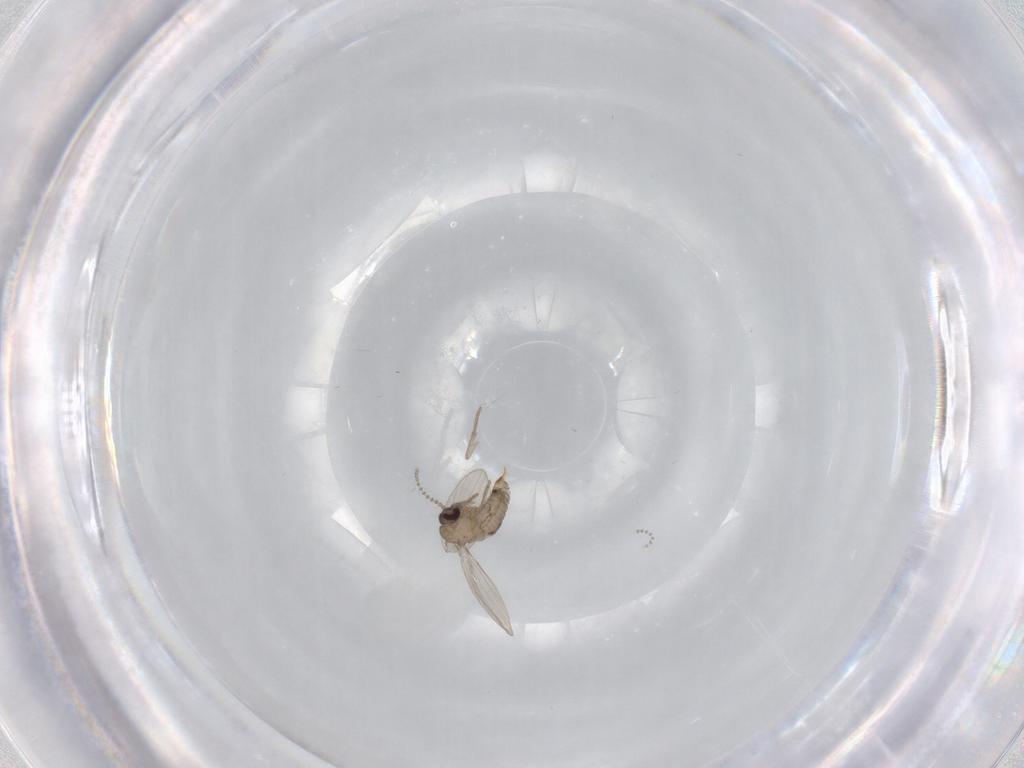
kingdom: Animalia
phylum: Arthropoda
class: Insecta
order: Diptera
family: Psychodidae
